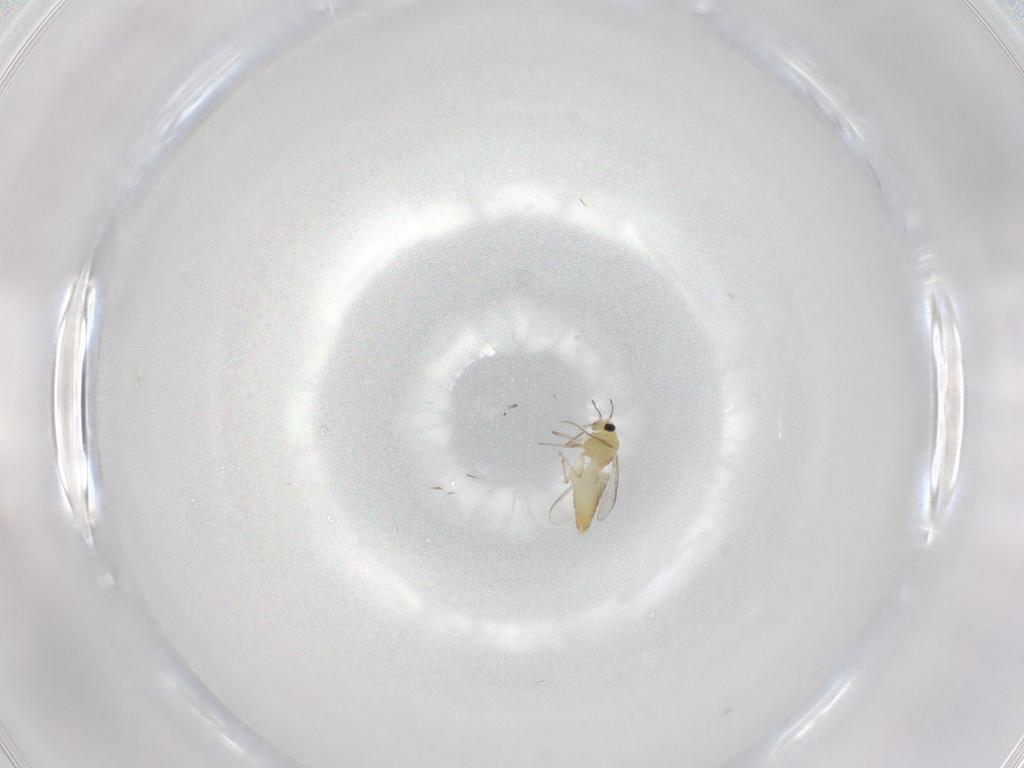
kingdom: Animalia
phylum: Arthropoda
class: Insecta
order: Diptera
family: Chironomidae
